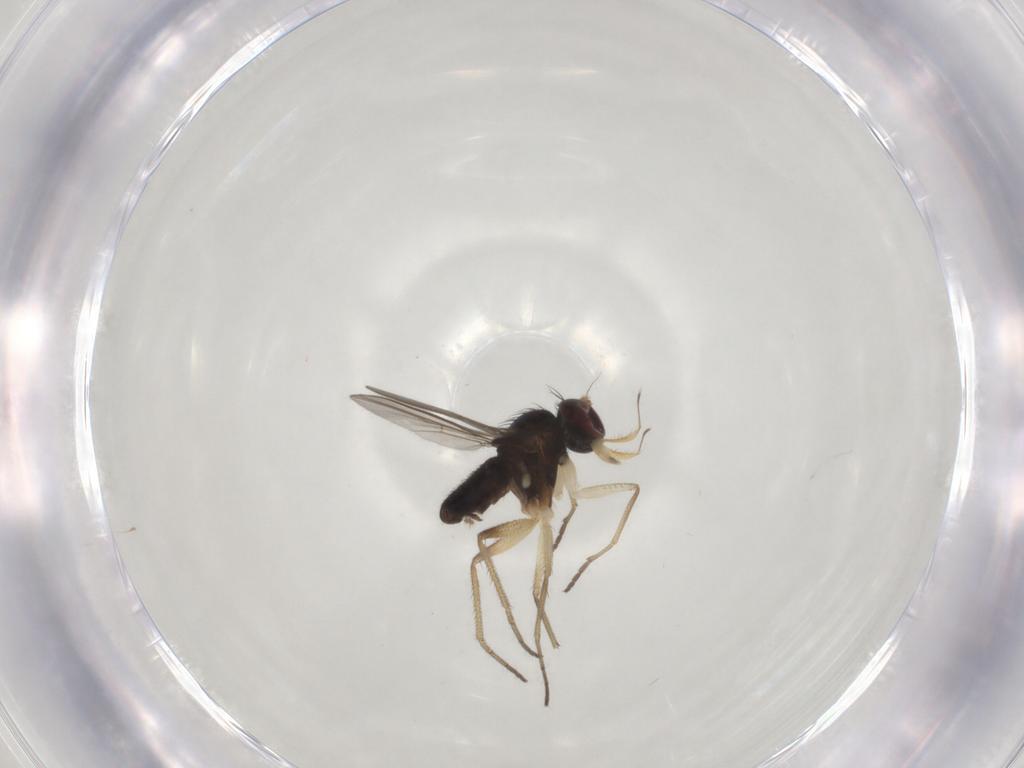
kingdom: Animalia
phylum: Arthropoda
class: Insecta
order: Diptera
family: Dolichopodidae
